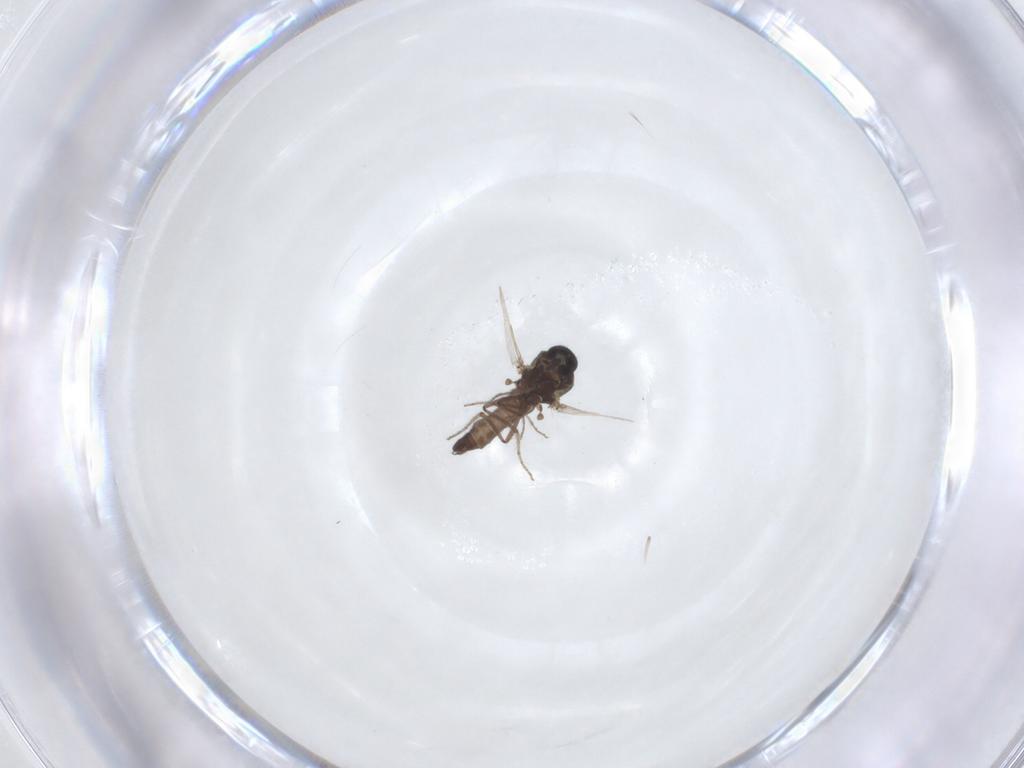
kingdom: Animalia
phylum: Arthropoda
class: Insecta
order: Diptera
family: Ceratopogonidae
